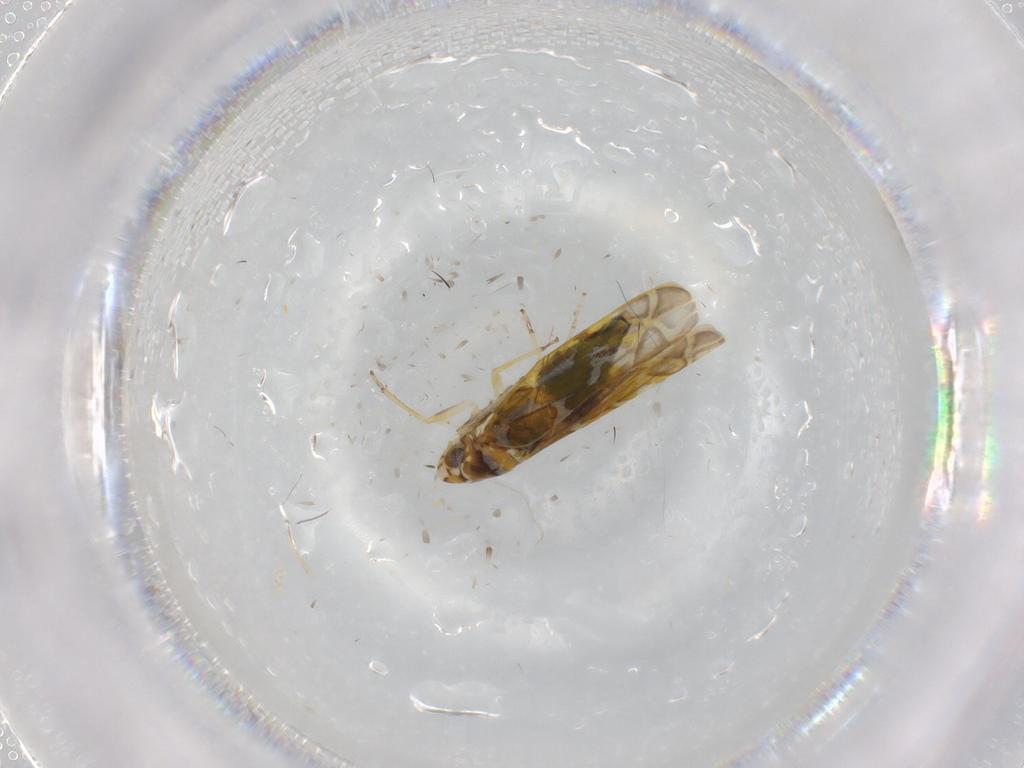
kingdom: Animalia
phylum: Arthropoda
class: Insecta
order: Hemiptera
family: Cicadellidae
